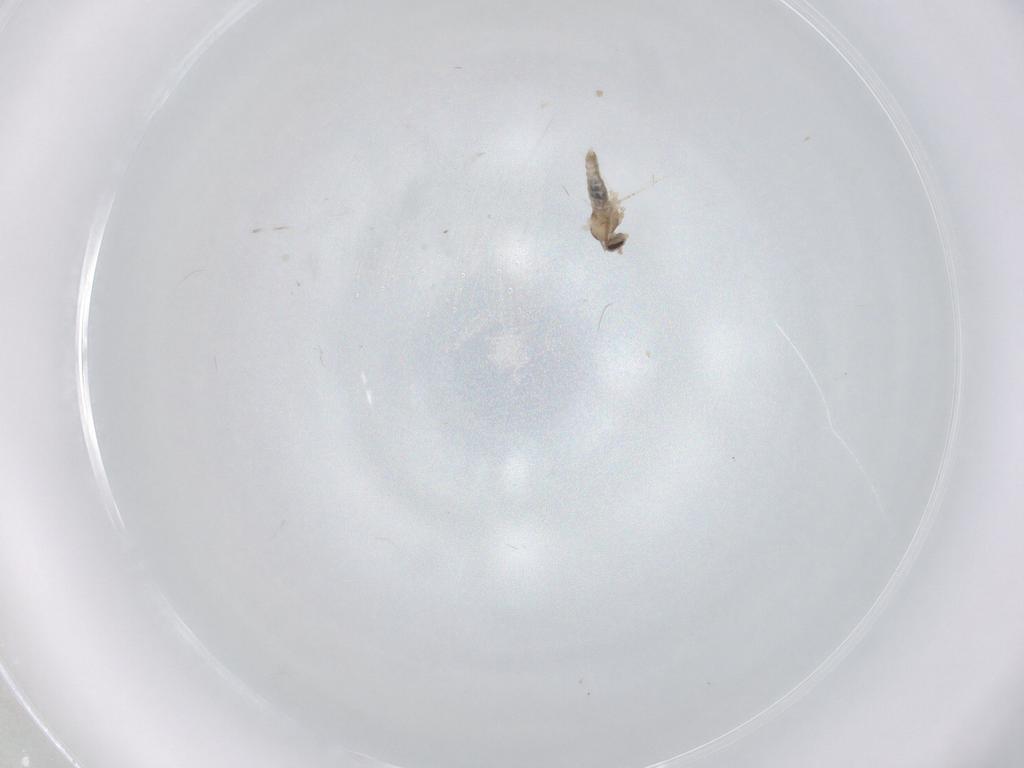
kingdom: Animalia
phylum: Arthropoda
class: Insecta
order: Diptera
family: Cecidomyiidae
